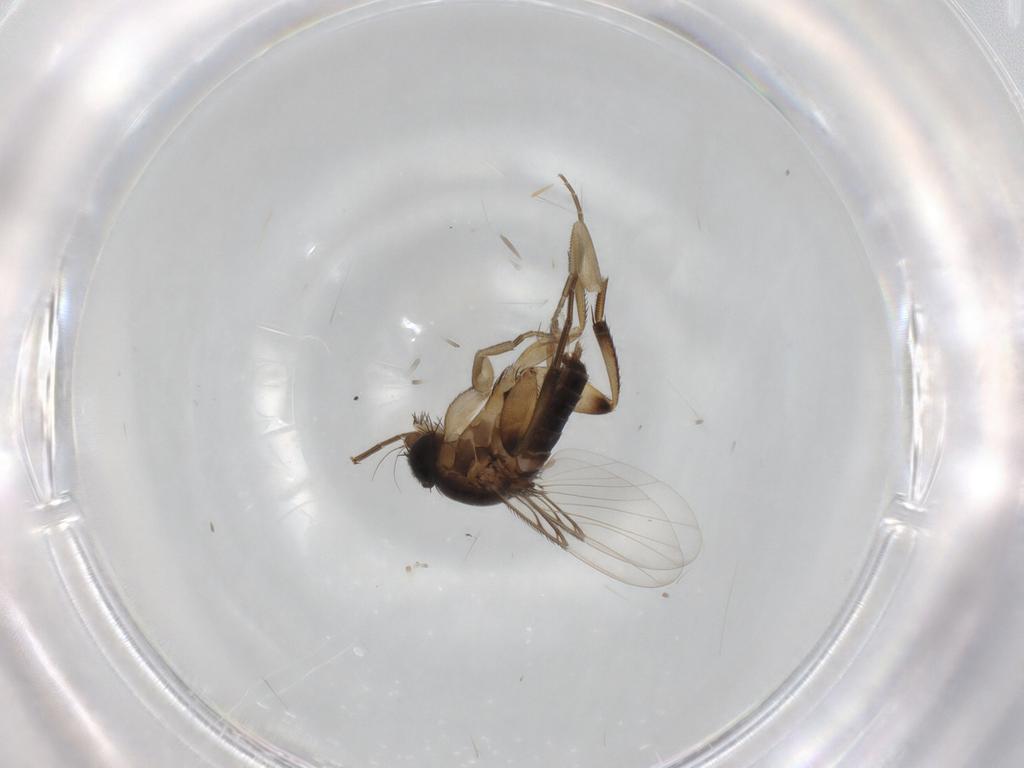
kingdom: Animalia
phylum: Arthropoda
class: Insecta
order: Diptera
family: Phoridae
